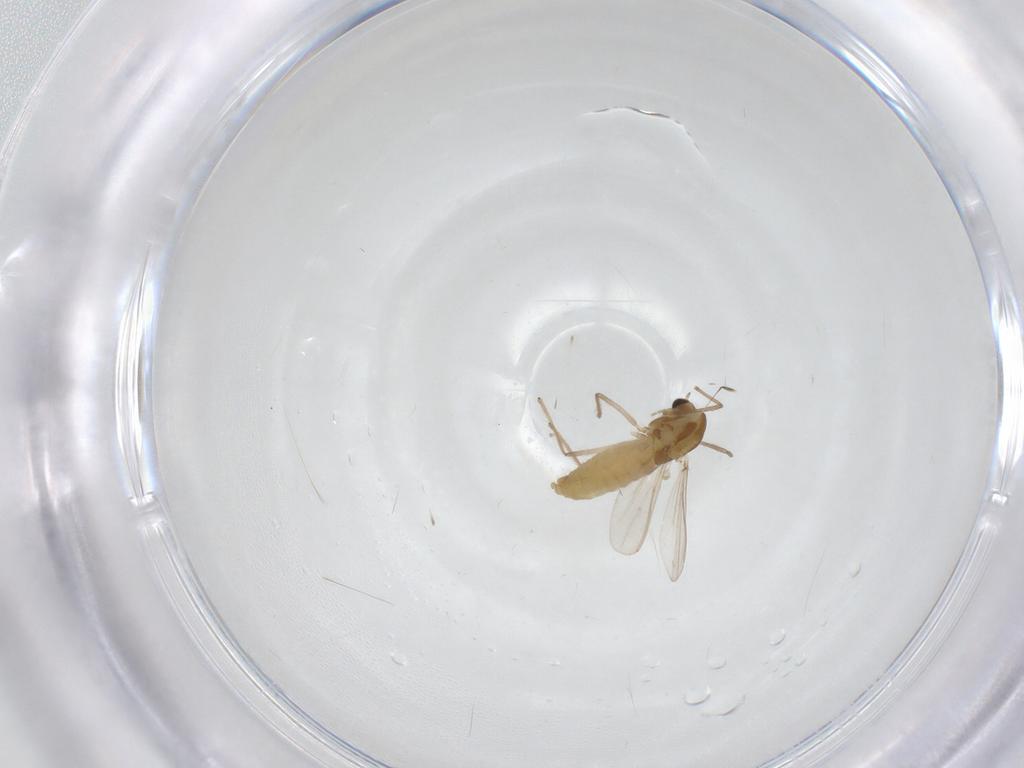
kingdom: Animalia
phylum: Arthropoda
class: Insecta
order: Diptera
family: Chironomidae
